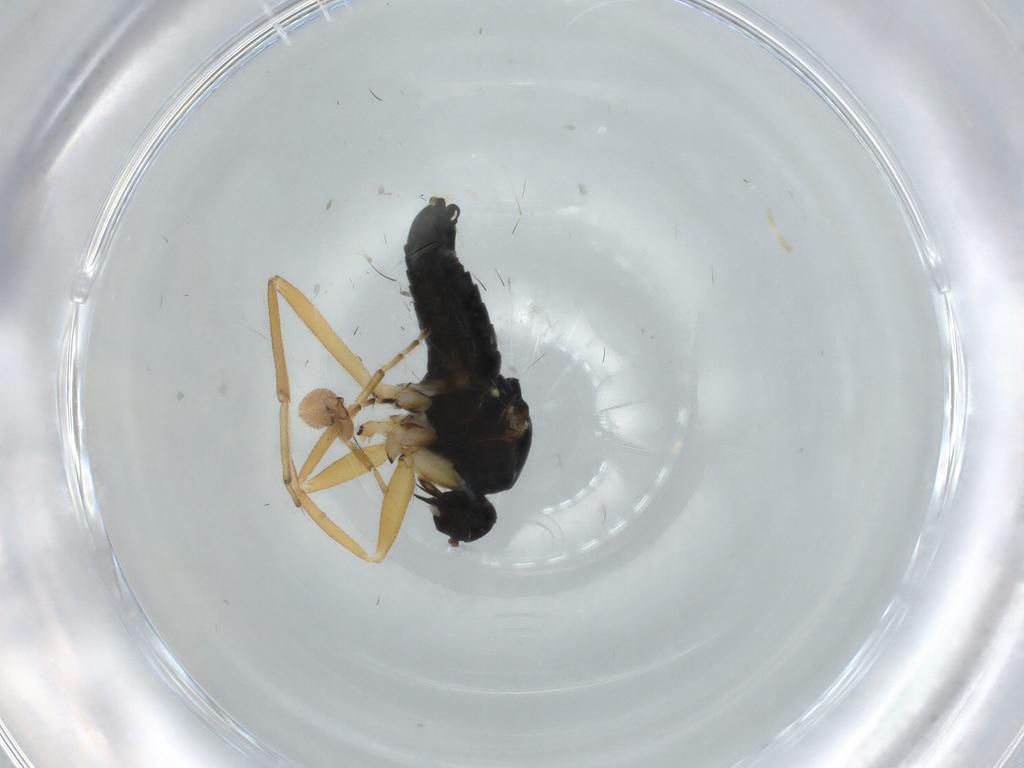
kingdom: Animalia
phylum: Arthropoda
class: Insecta
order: Diptera
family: Anthomyiidae
